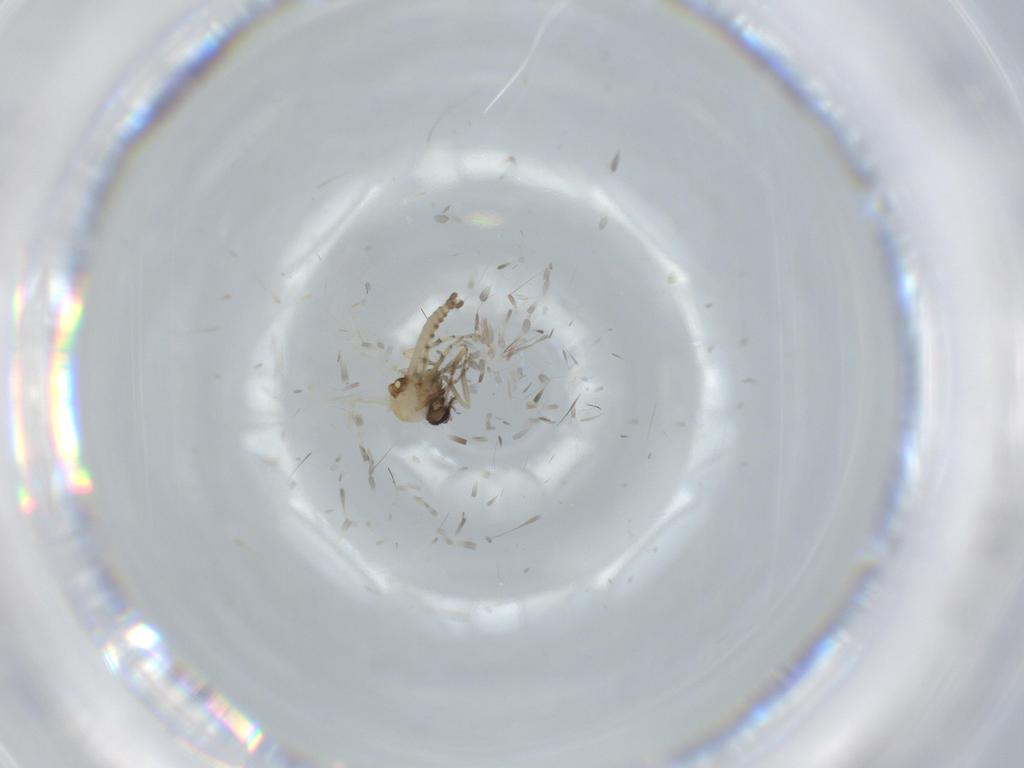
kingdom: Animalia
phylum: Arthropoda
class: Insecta
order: Diptera
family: Ceratopogonidae
